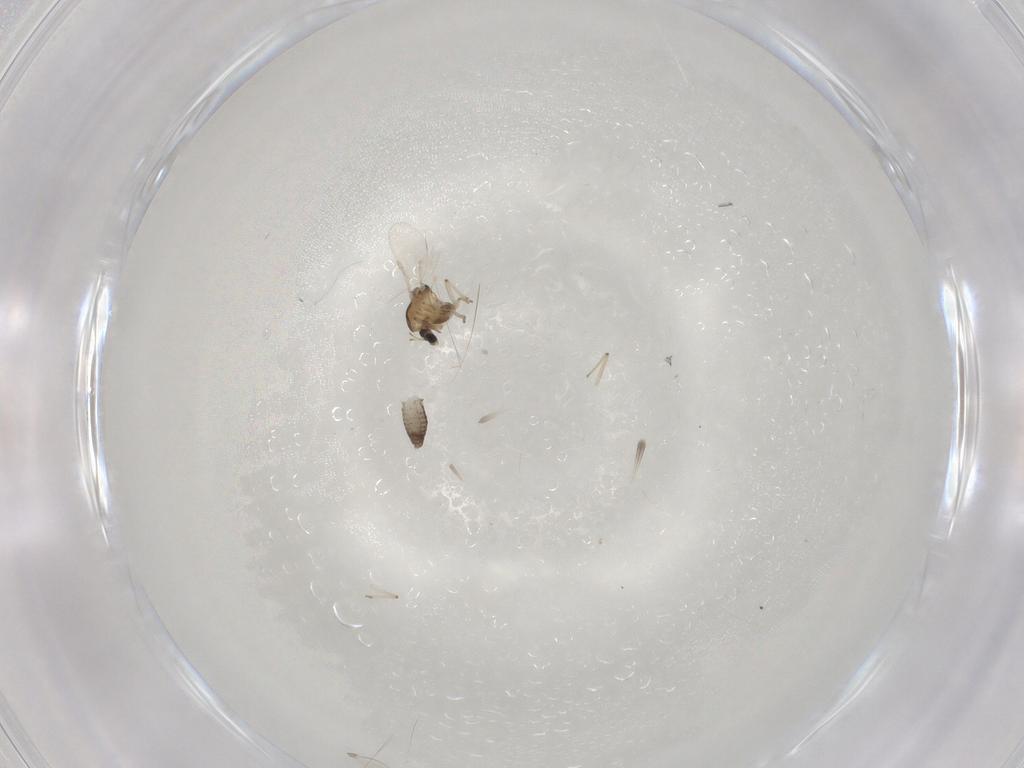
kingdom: Animalia
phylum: Arthropoda
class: Insecta
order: Diptera
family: Chironomidae
